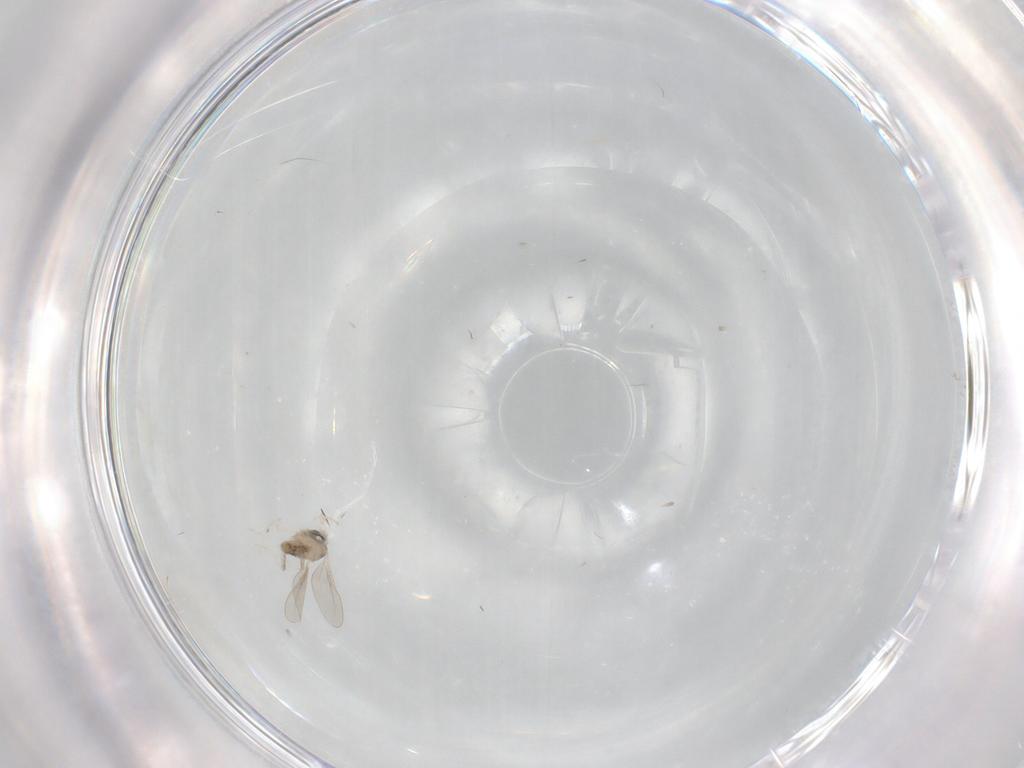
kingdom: Animalia
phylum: Arthropoda
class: Insecta
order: Diptera
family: Cecidomyiidae
